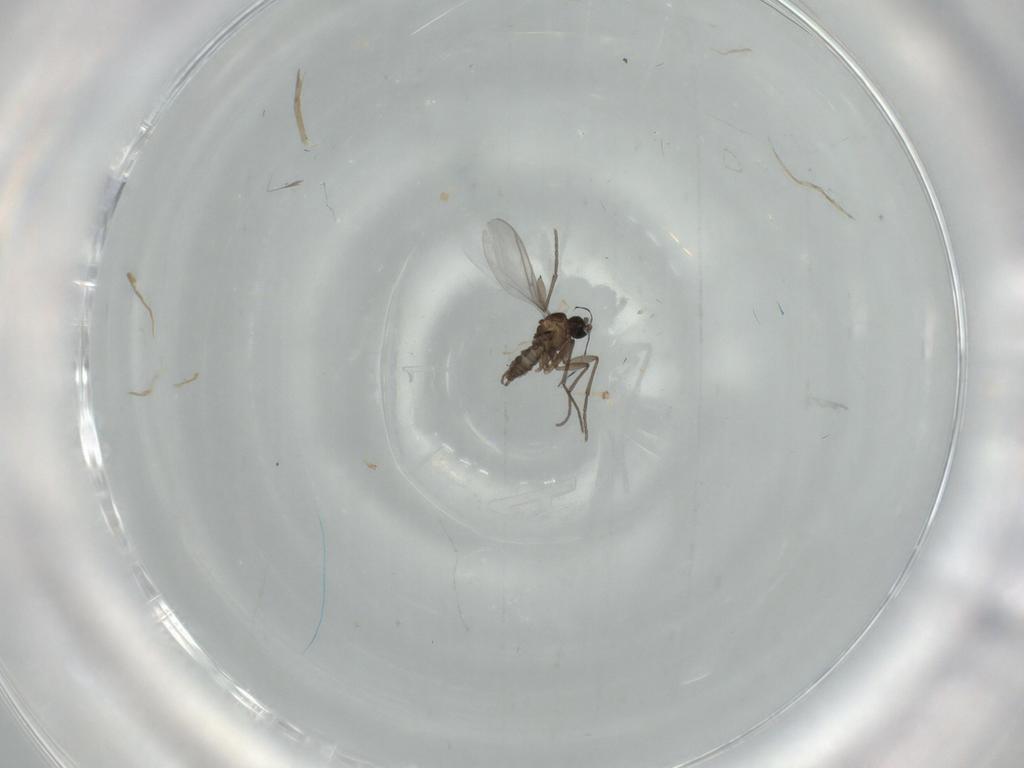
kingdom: Animalia
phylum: Arthropoda
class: Insecta
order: Diptera
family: Sciaridae
